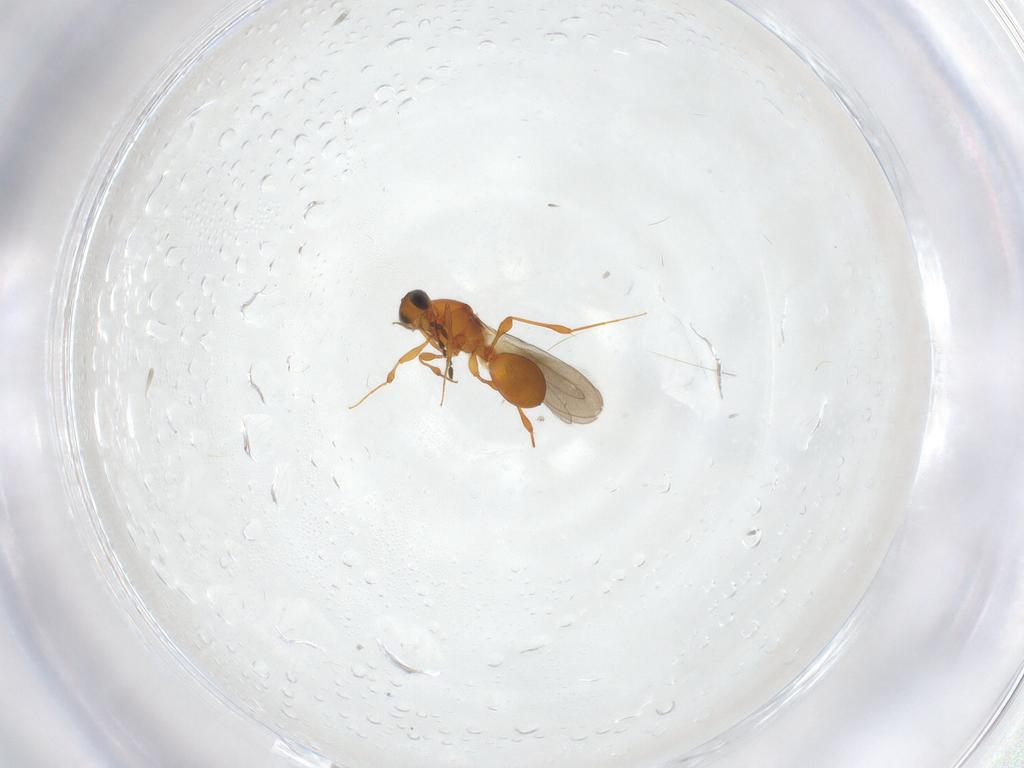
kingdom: Animalia
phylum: Arthropoda
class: Insecta
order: Hymenoptera
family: Platygastridae
